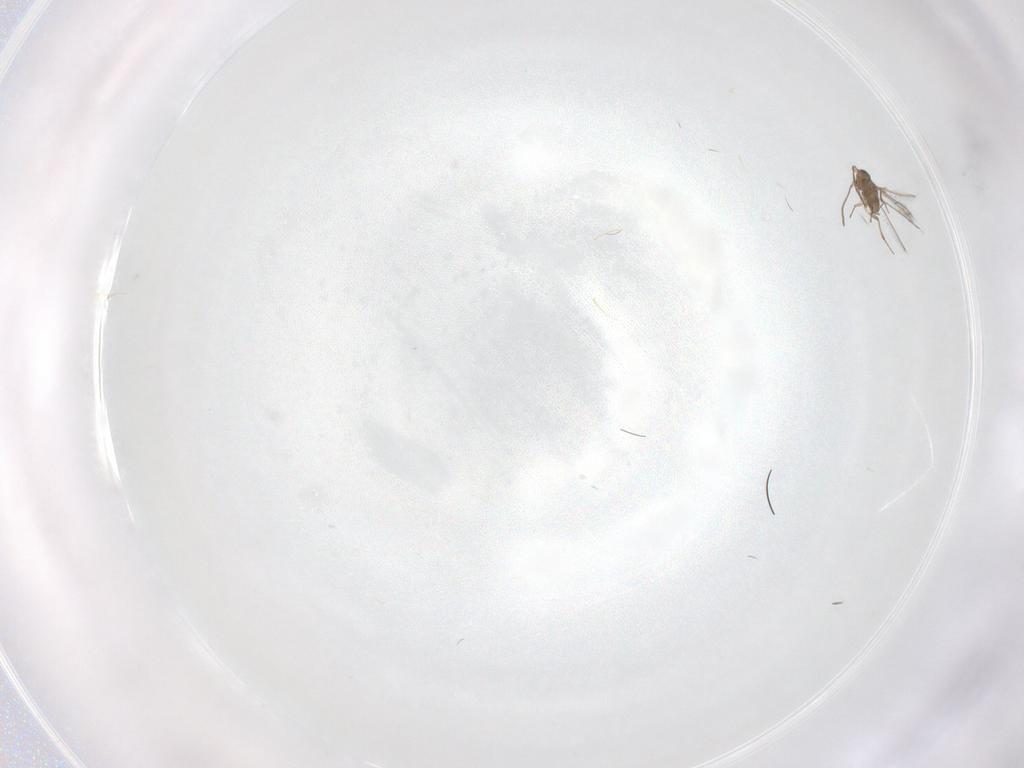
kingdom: Animalia
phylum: Arthropoda
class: Insecta
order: Hymenoptera
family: Mymaridae
